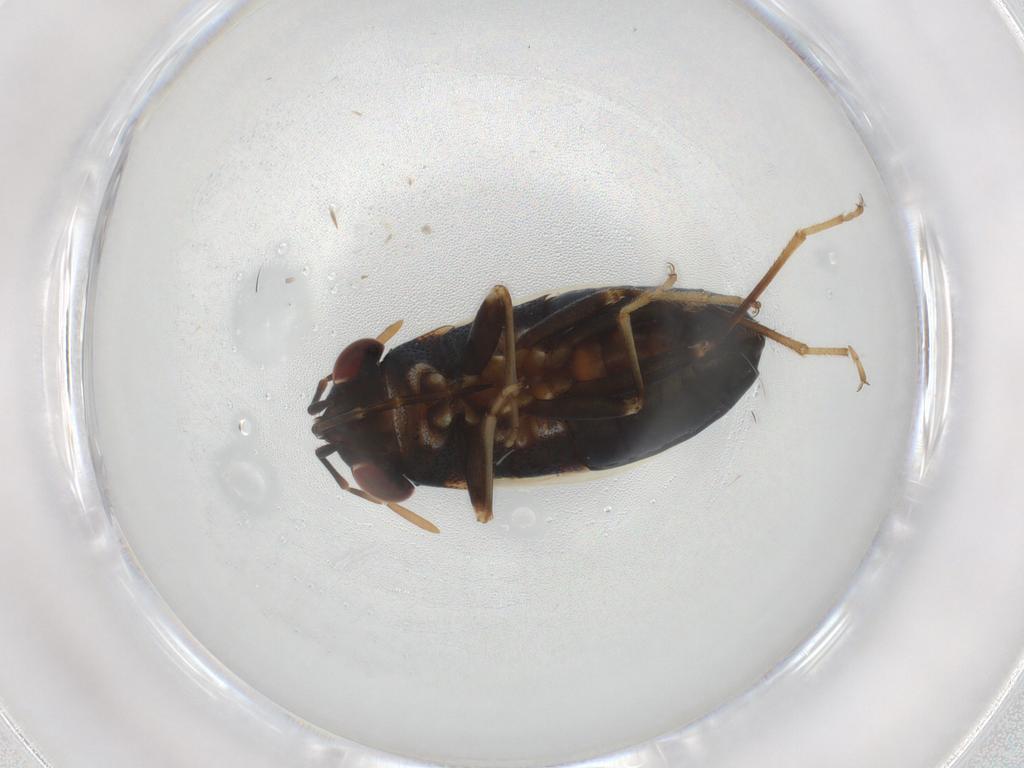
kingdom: Animalia
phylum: Arthropoda
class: Insecta
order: Hemiptera
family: Geocoridae
